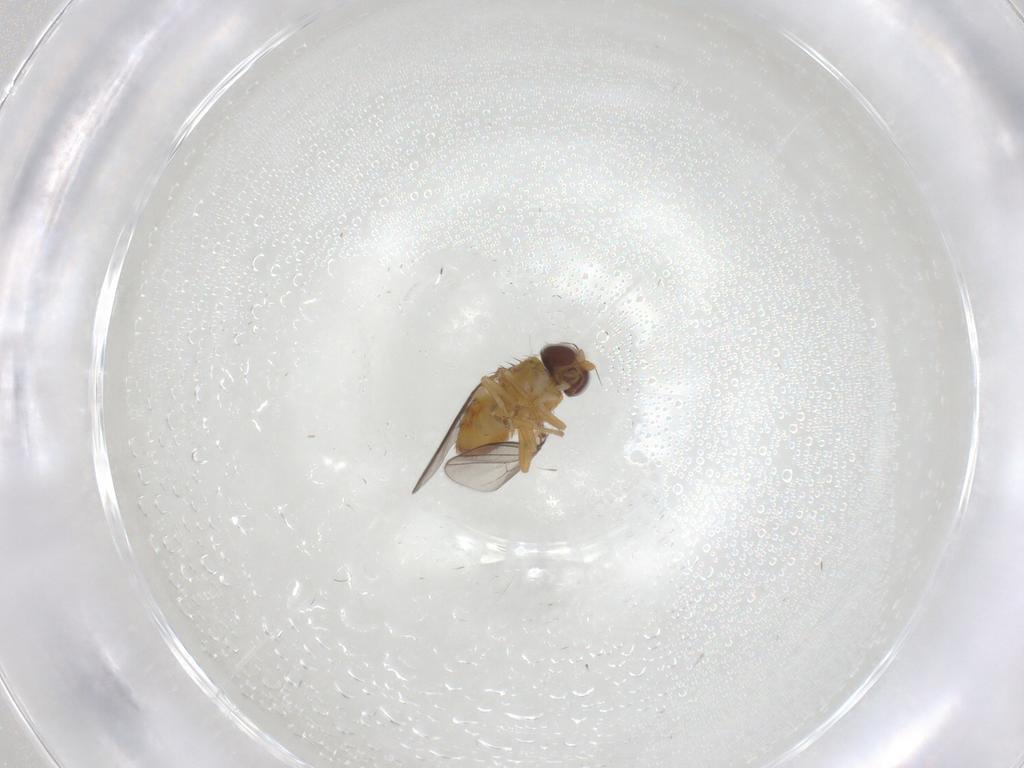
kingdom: Animalia
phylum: Arthropoda
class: Insecta
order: Diptera
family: Chloropidae
